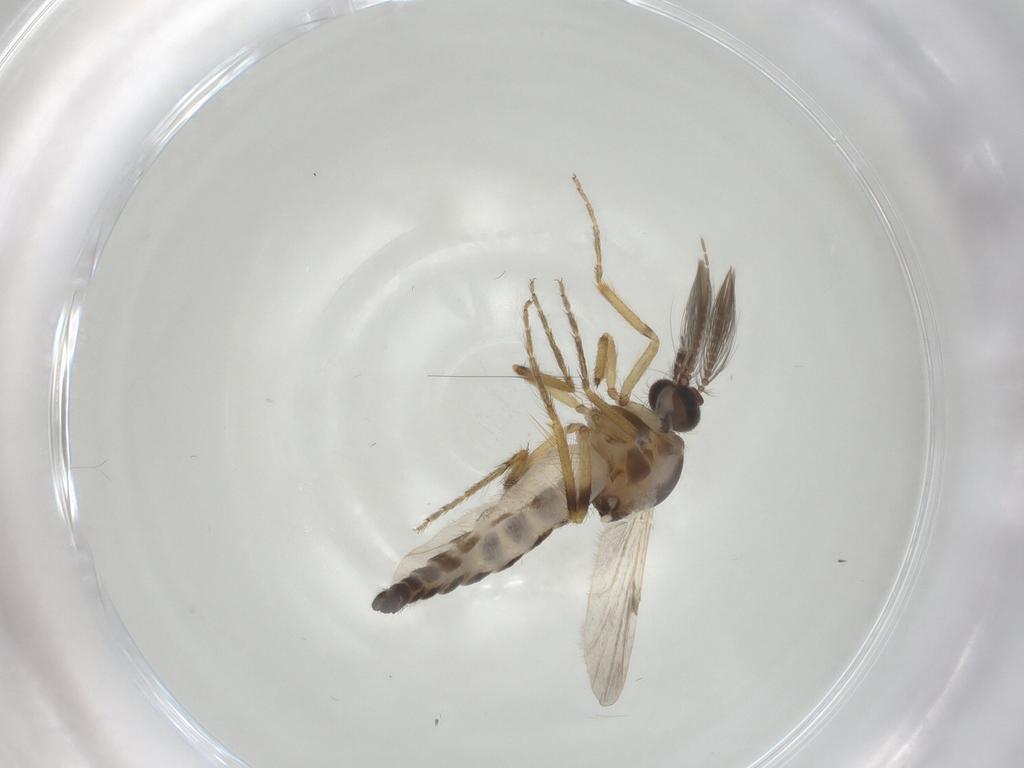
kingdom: Animalia
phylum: Arthropoda
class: Insecta
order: Diptera
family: Ceratopogonidae
